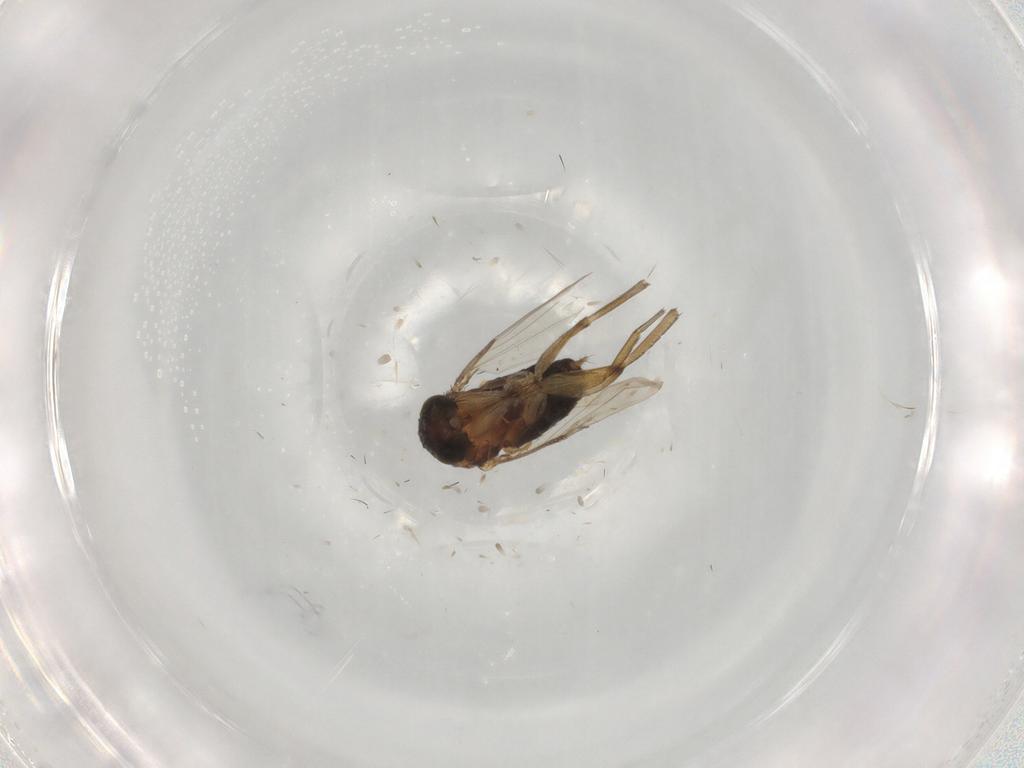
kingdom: Animalia
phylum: Arthropoda
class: Insecta
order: Diptera
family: Phoridae
